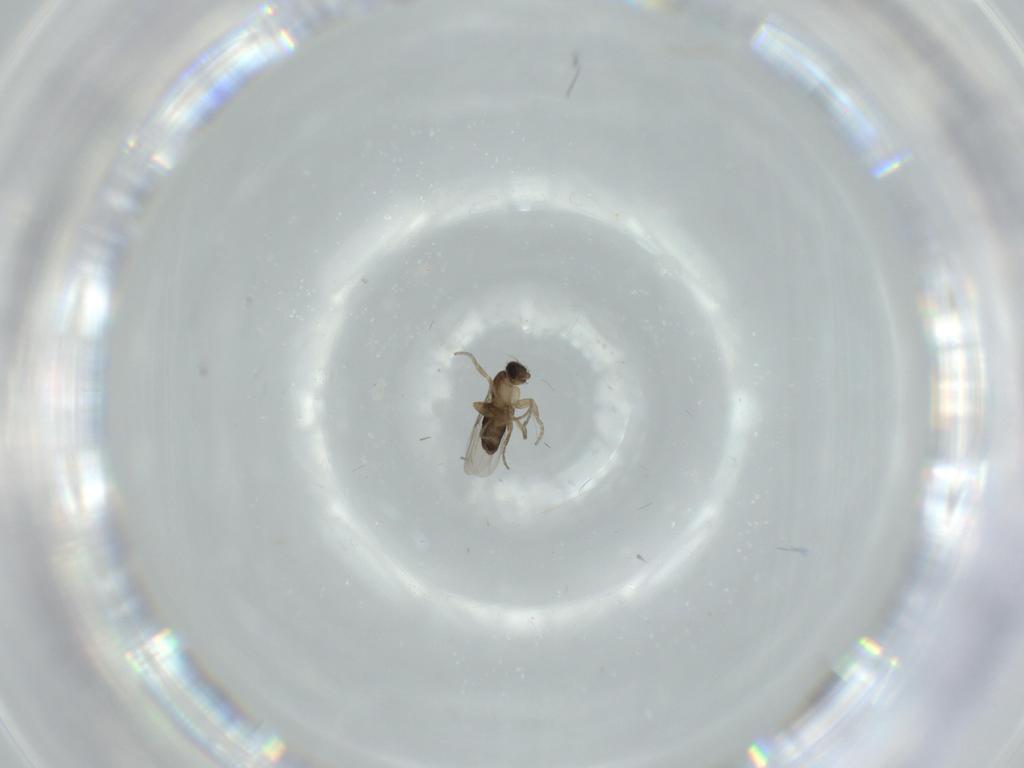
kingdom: Animalia
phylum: Arthropoda
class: Insecta
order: Diptera
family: Phoridae
